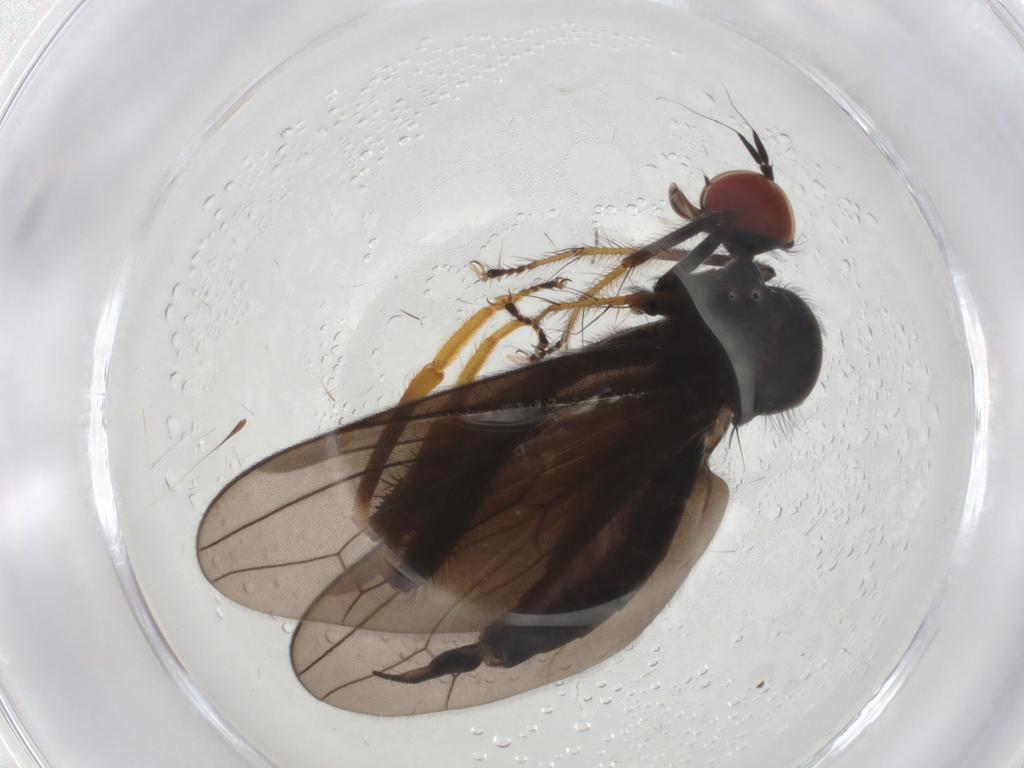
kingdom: Animalia
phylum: Arthropoda
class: Insecta
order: Diptera
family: Hybotidae
